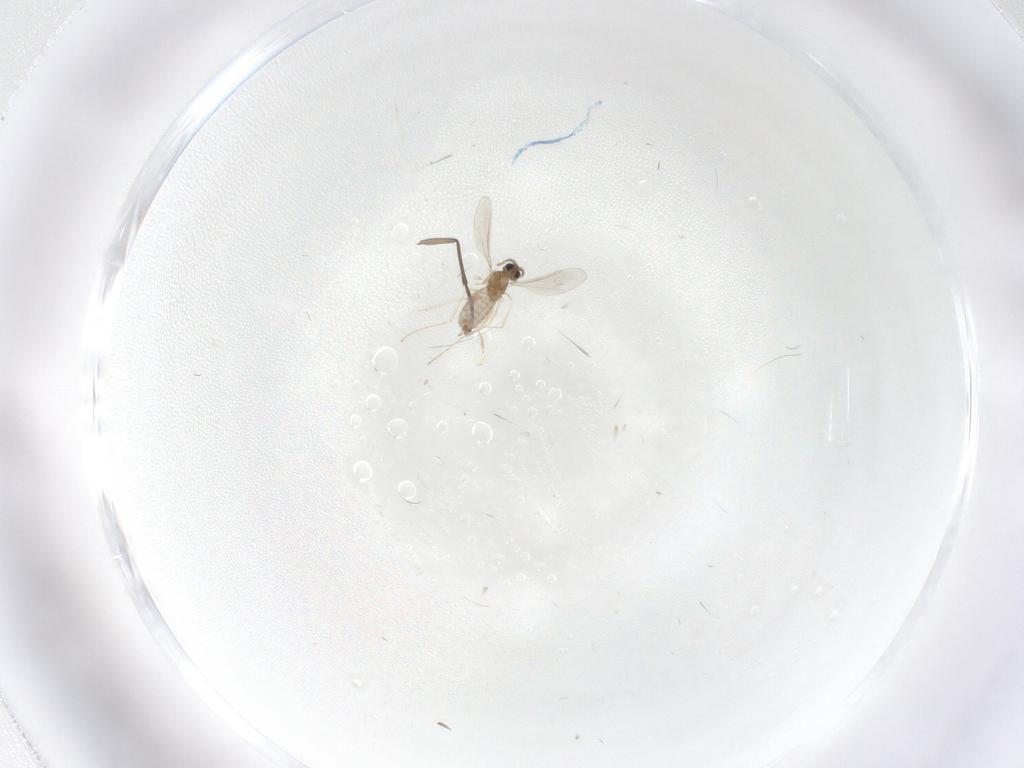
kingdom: Animalia
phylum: Arthropoda
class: Insecta
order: Diptera
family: Cecidomyiidae
